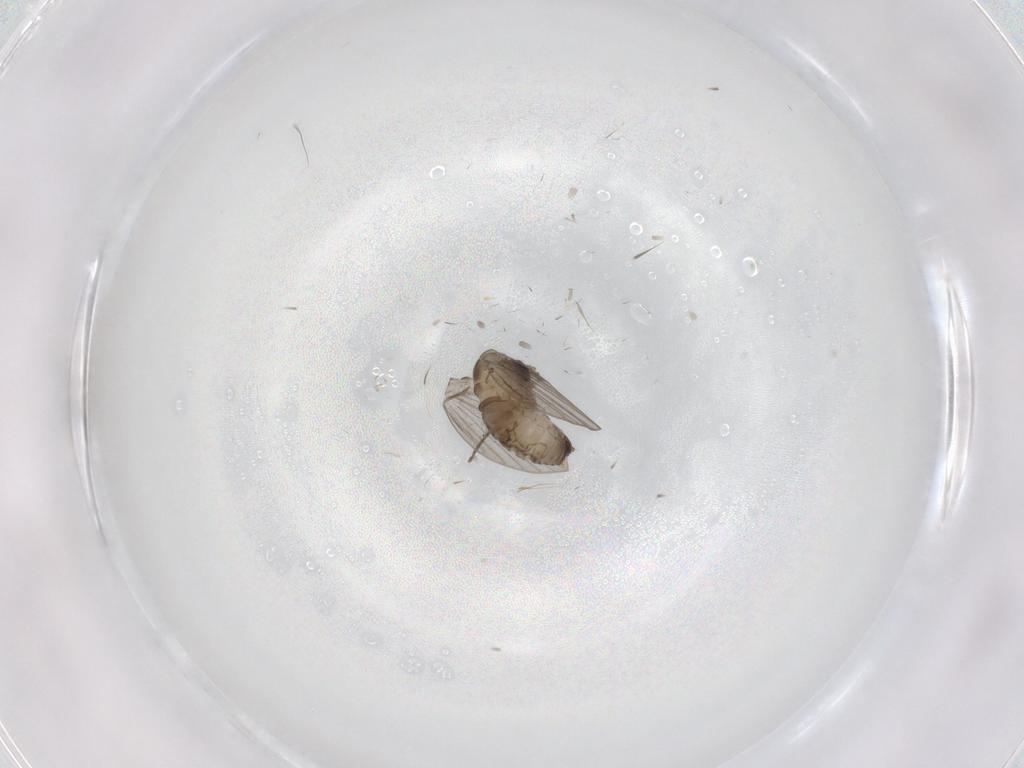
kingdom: Animalia
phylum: Arthropoda
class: Insecta
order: Diptera
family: Psychodidae
